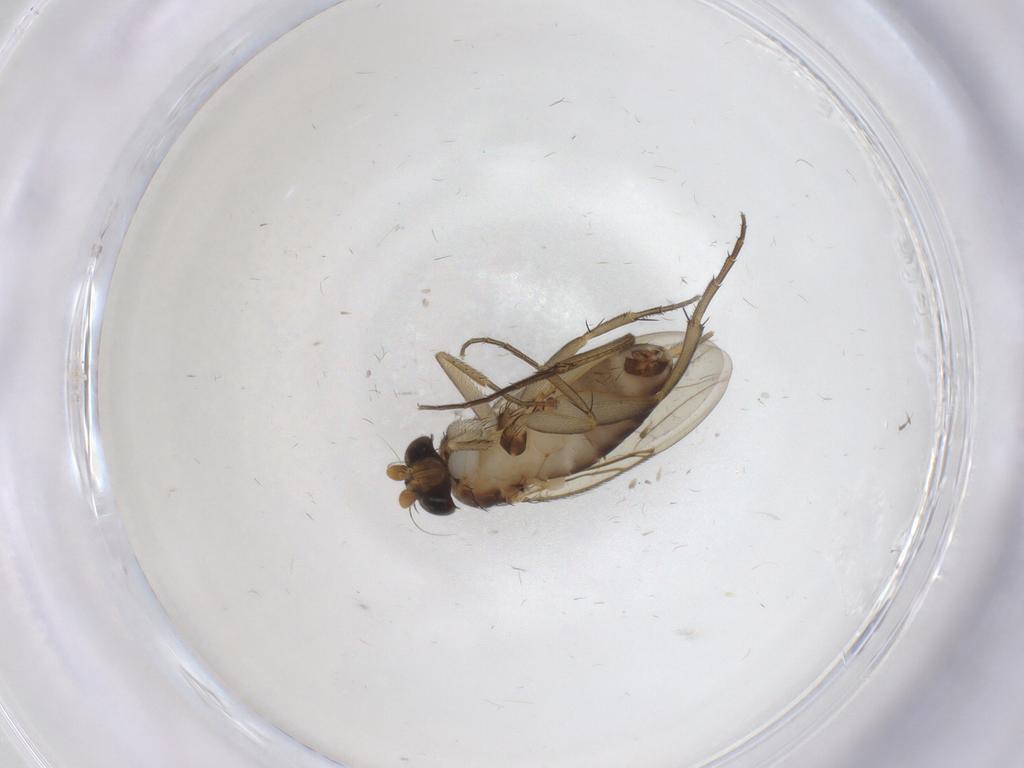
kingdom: Animalia
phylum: Arthropoda
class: Insecta
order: Diptera
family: Phoridae
